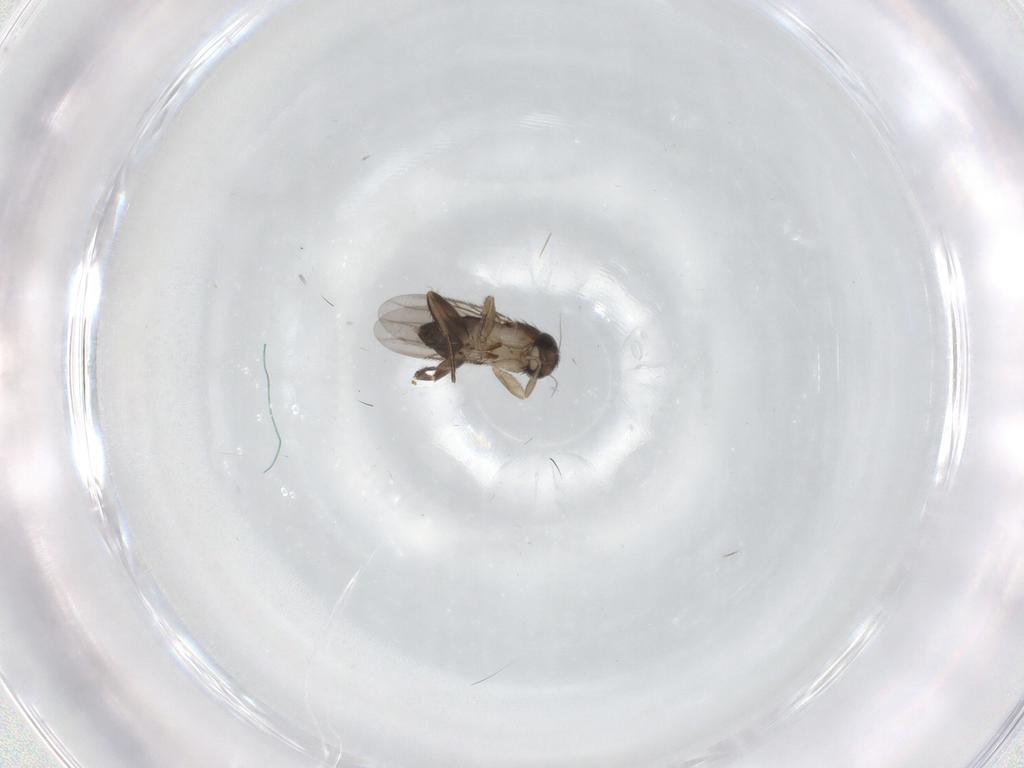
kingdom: Animalia
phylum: Arthropoda
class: Insecta
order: Diptera
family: Phoridae
